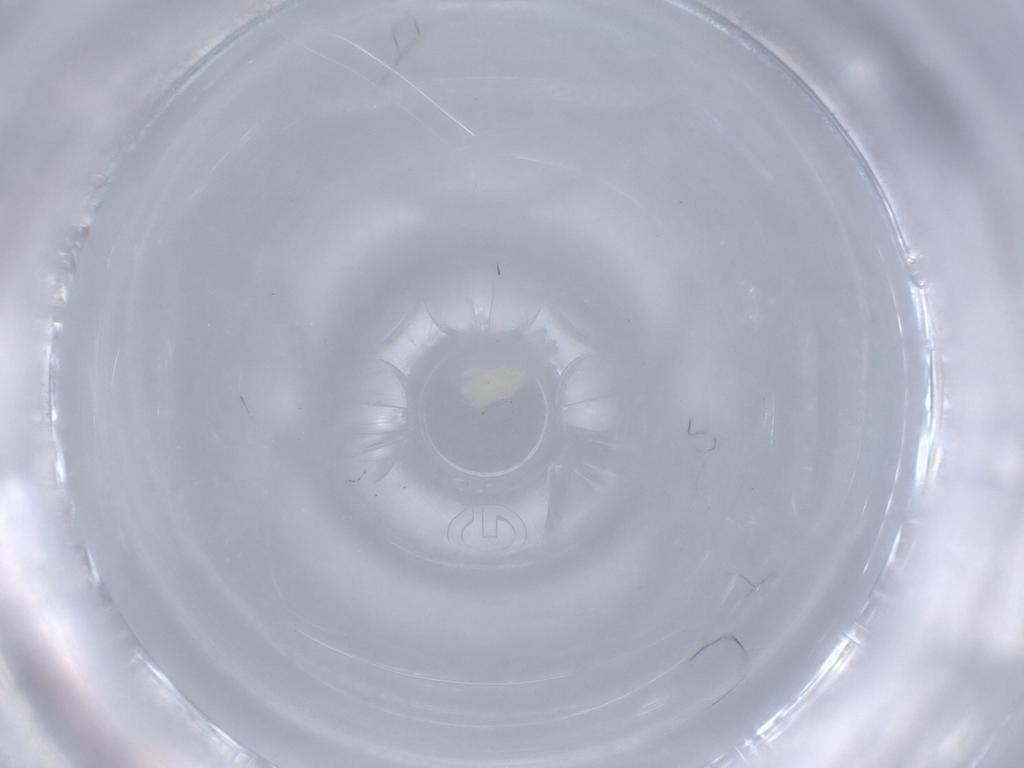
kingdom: Animalia
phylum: Arthropoda
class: Arachnida
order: Trombidiformes
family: Eupodidae
